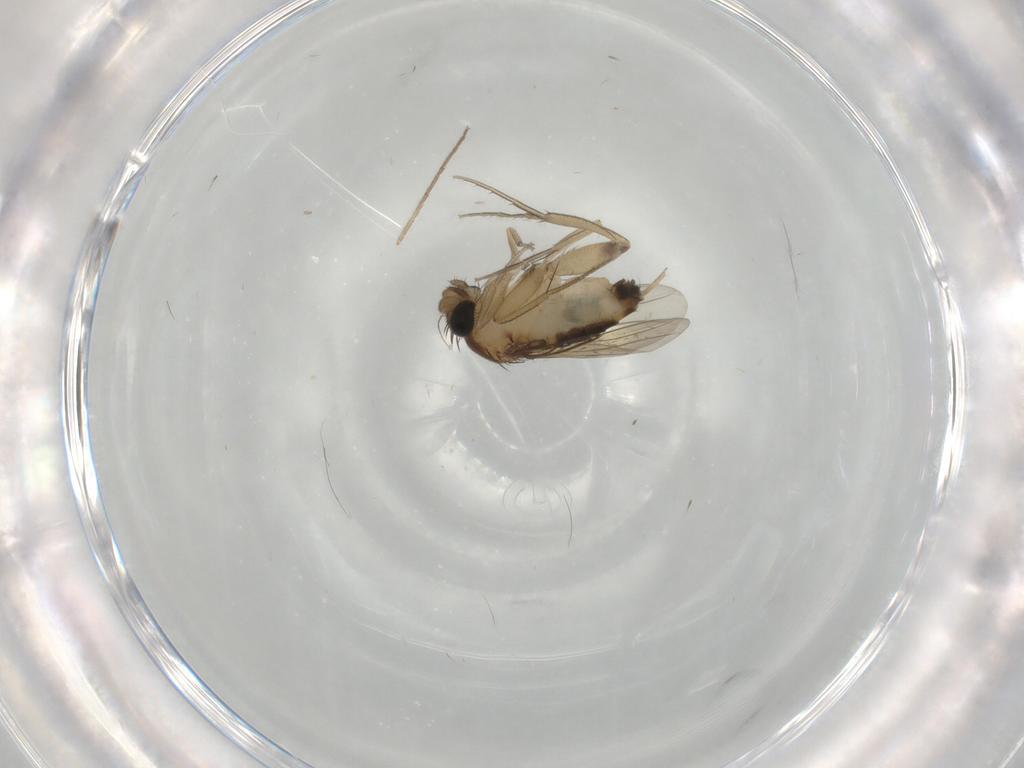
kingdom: Animalia
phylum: Arthropoda
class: Insecta
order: Diptera
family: Phoridae
